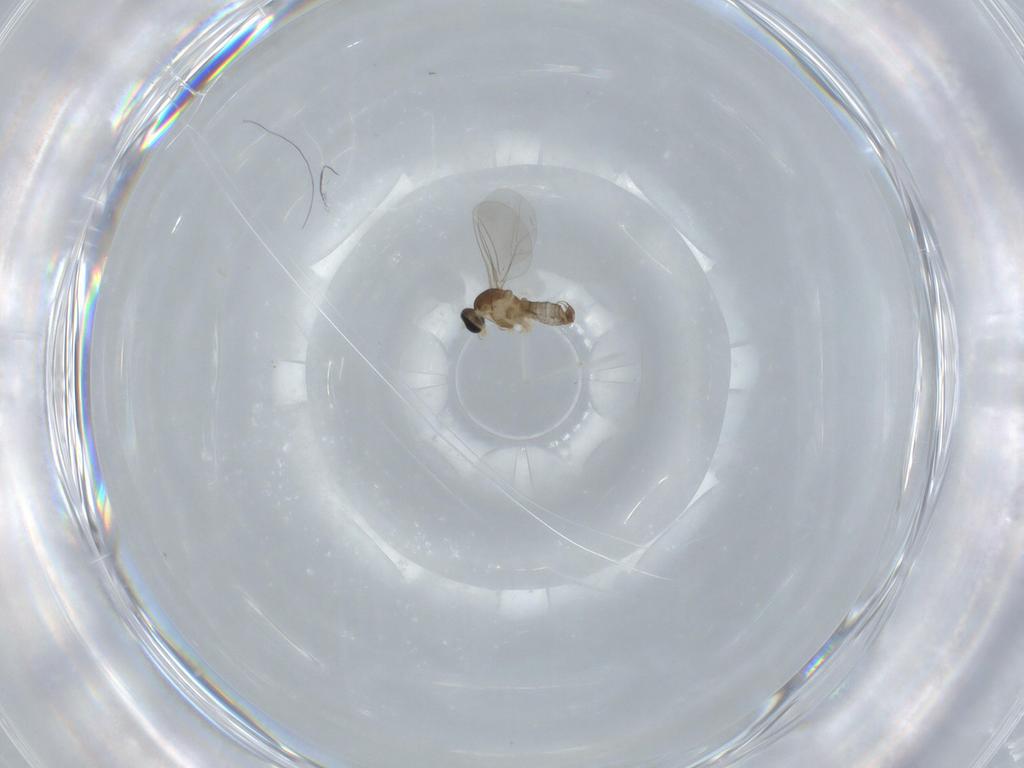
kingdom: Animalia
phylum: Arthropoda
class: Insecta
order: Diptera
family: Cecidomyiidae
